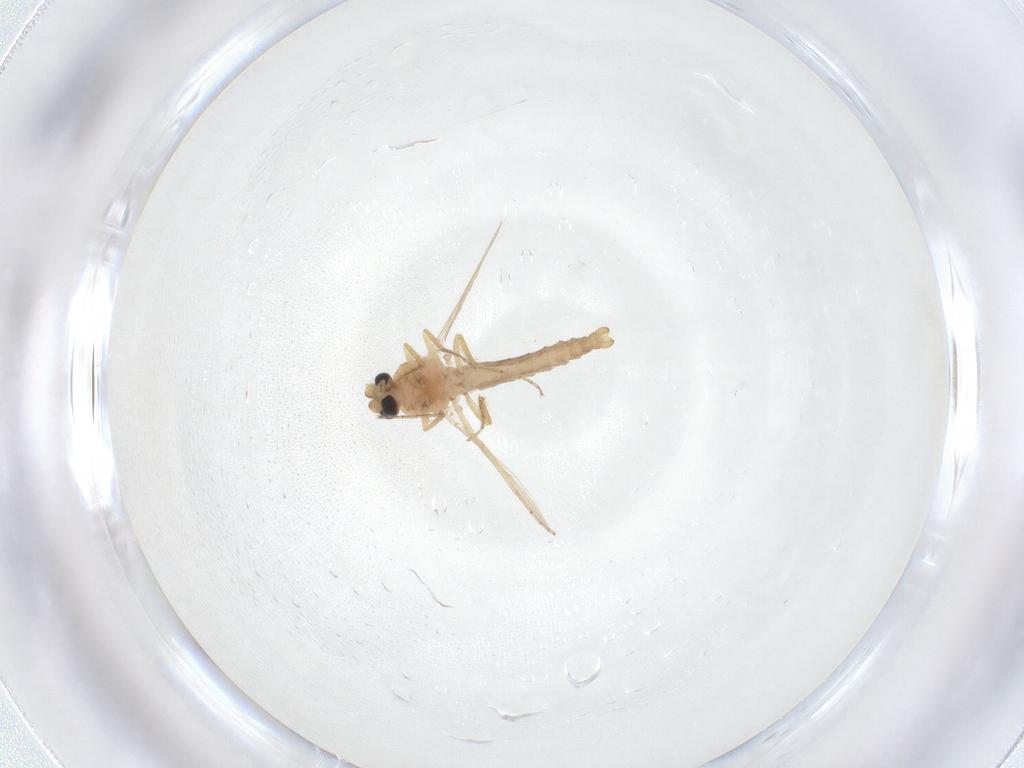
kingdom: Animalia
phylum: Arthropoda
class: Insecta
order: Diptera
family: Ceratopogonidae
